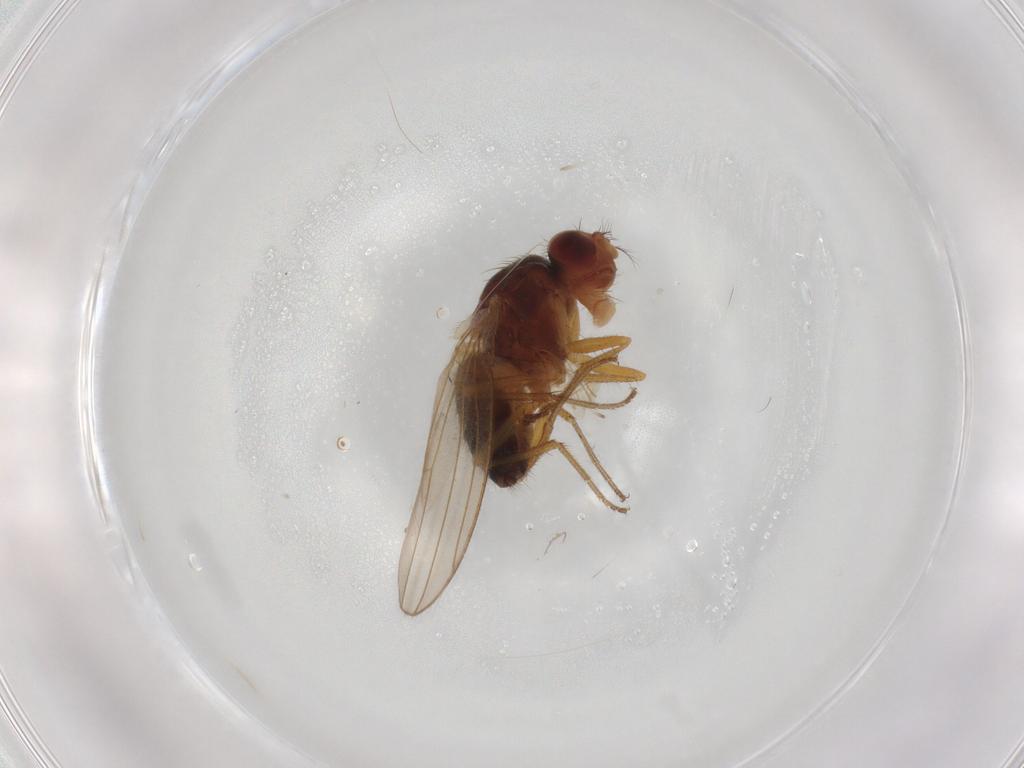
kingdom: Animalia
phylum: Arthropoda
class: Insecta
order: Diptera
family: Drosophilidae
